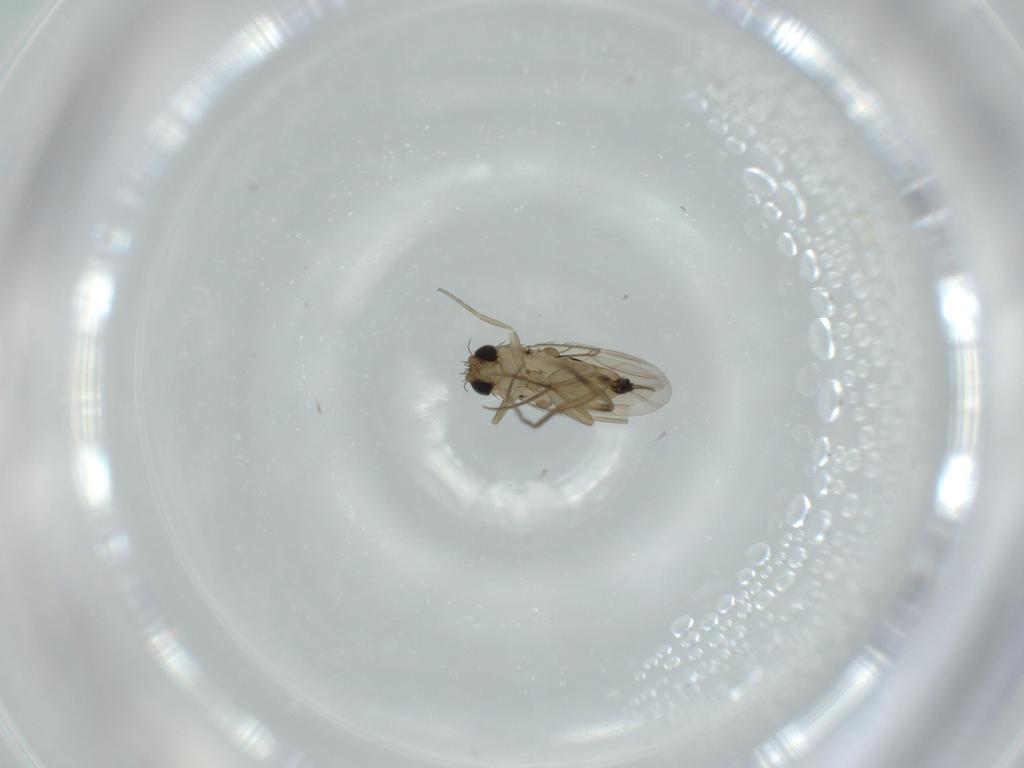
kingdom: Animalia
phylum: Arthropoda
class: Insecta
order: Diptera
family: Phoridae
